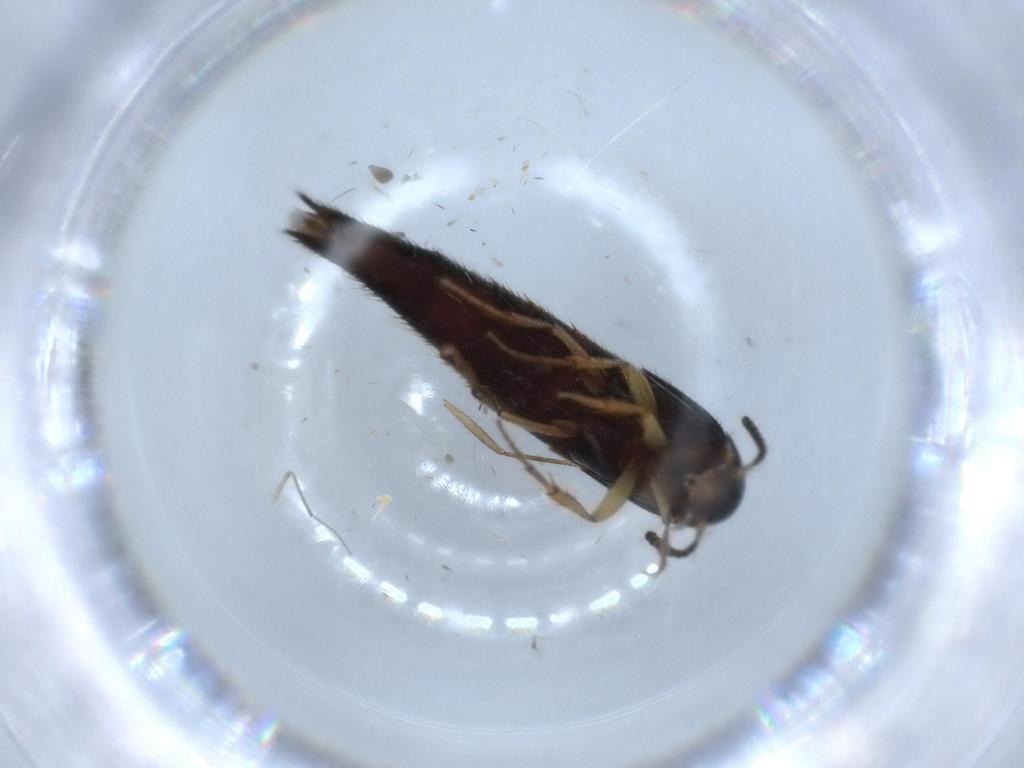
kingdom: Animalia
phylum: Arthropoda
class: Insecta
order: Coleoptera
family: Staphylinidae
